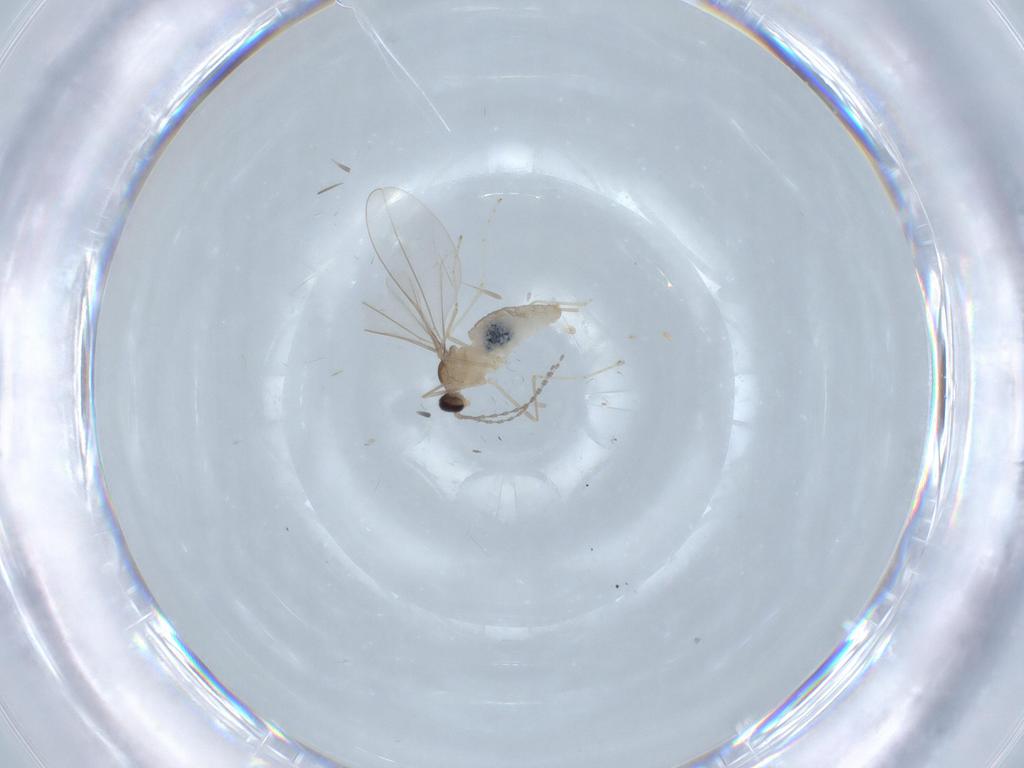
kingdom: Animalia
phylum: Arthropoda
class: Insecta
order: Diptera
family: Cecidomyiidae
